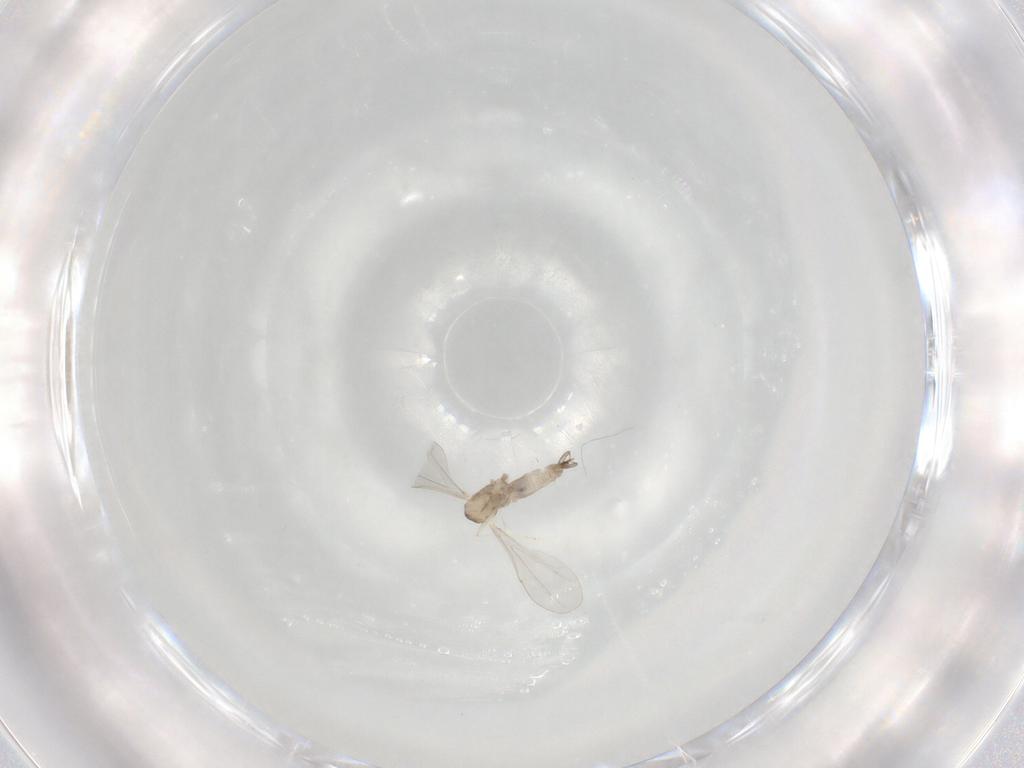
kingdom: Animalia
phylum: Arthropoda
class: Insecta
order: Diptera
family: Cecidomyiidae
